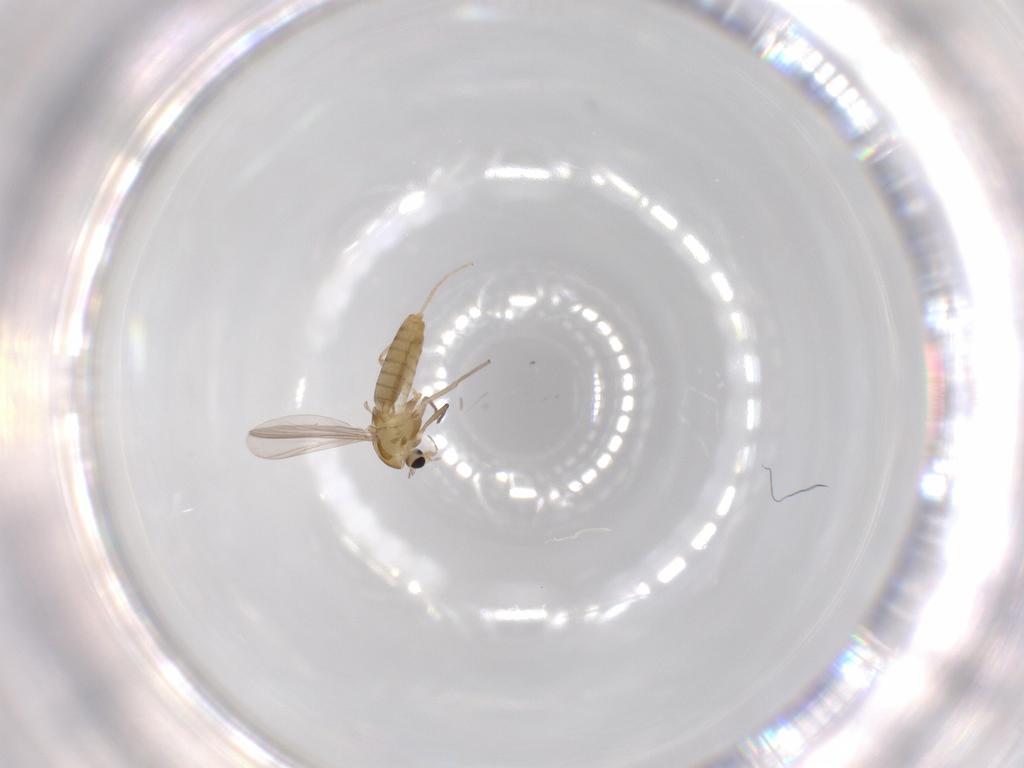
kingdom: Animalia
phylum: Arthropoda
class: Insecta
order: Diptera
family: Chironomidae
